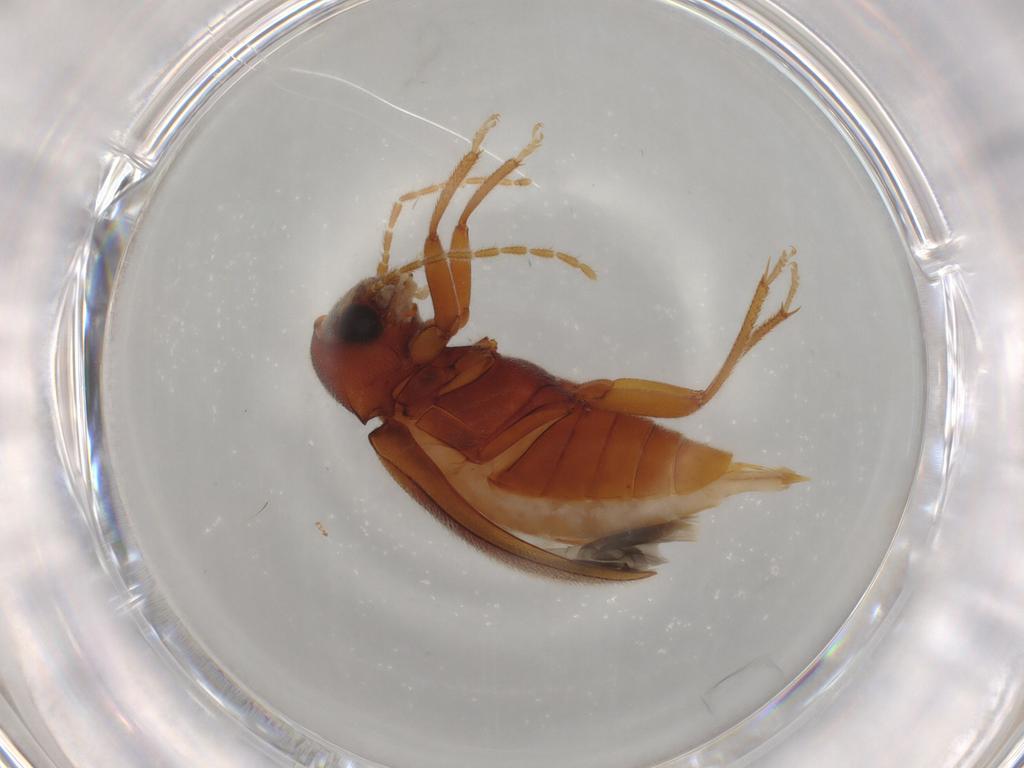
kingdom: Animalia
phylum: Arthropoda
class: Insecta
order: Coleoptera
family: Ptilodactylidae
